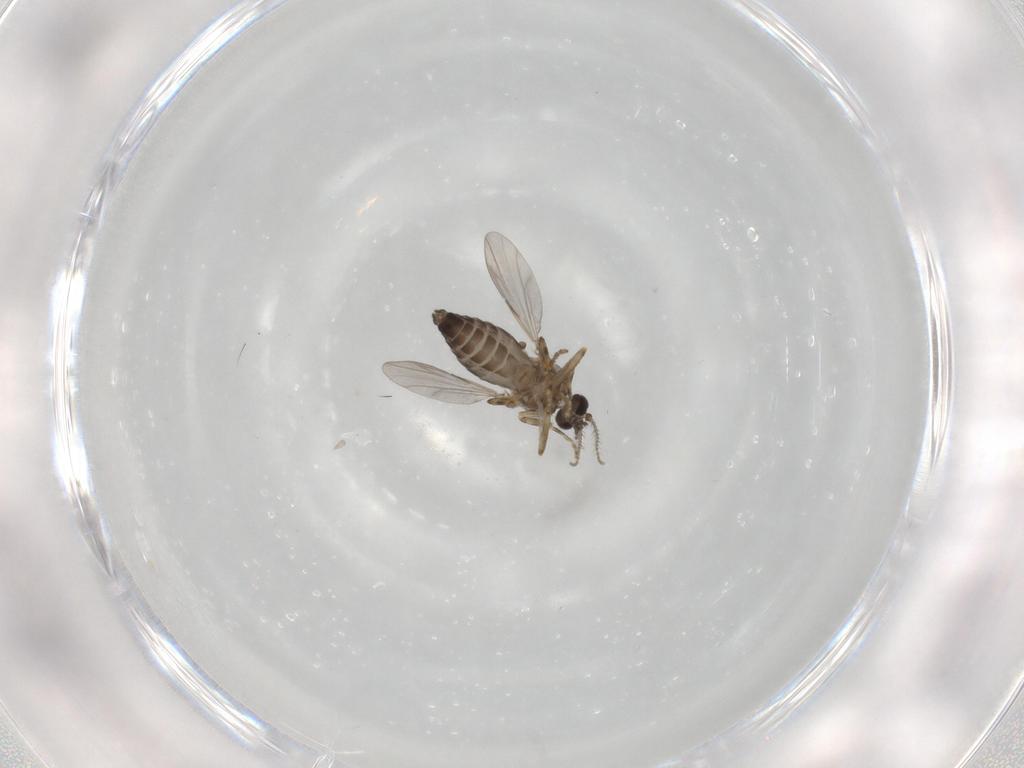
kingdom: Animalia
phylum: Arthropoda
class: Insecta
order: Diptera
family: Ceratopogonidae
